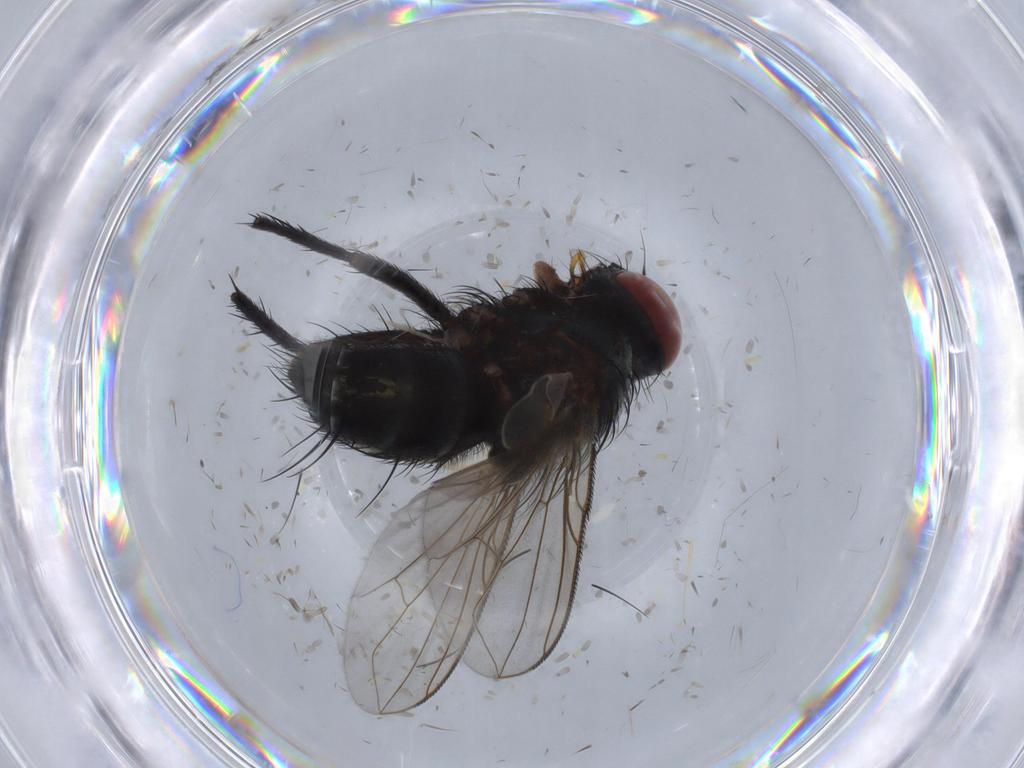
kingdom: Animalia
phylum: Arthropoda
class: Insecta
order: Diptera
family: Tachinidae
